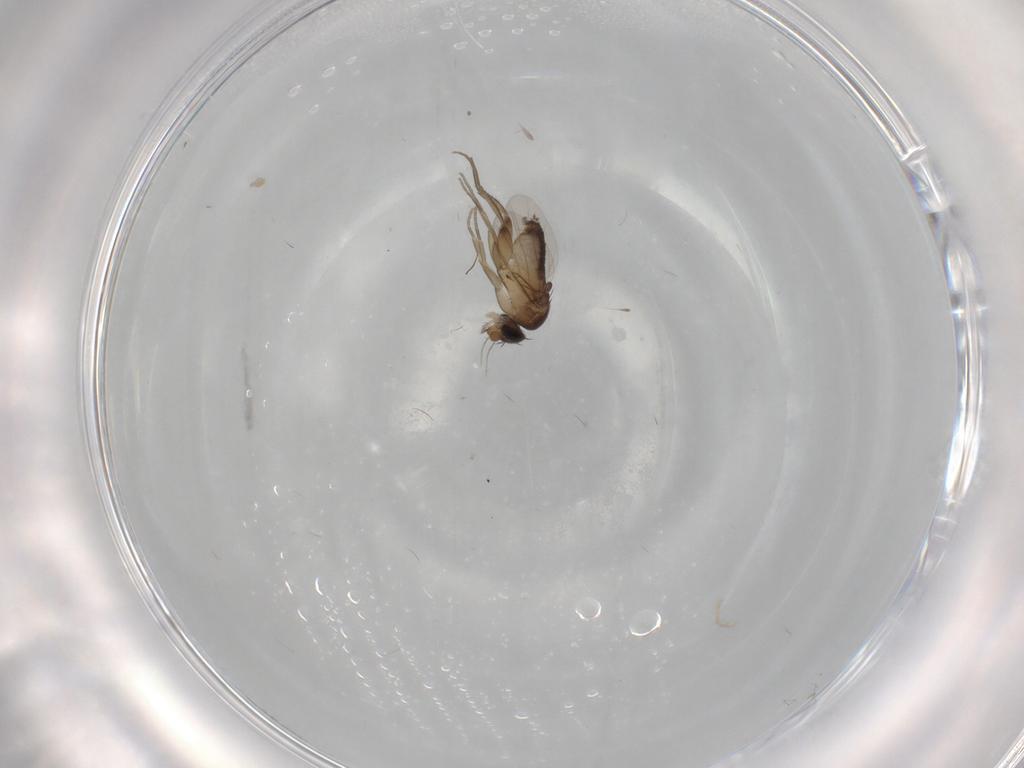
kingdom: Animalia
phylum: Arthropoda
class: Insecta
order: Diptera
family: Phoridae
